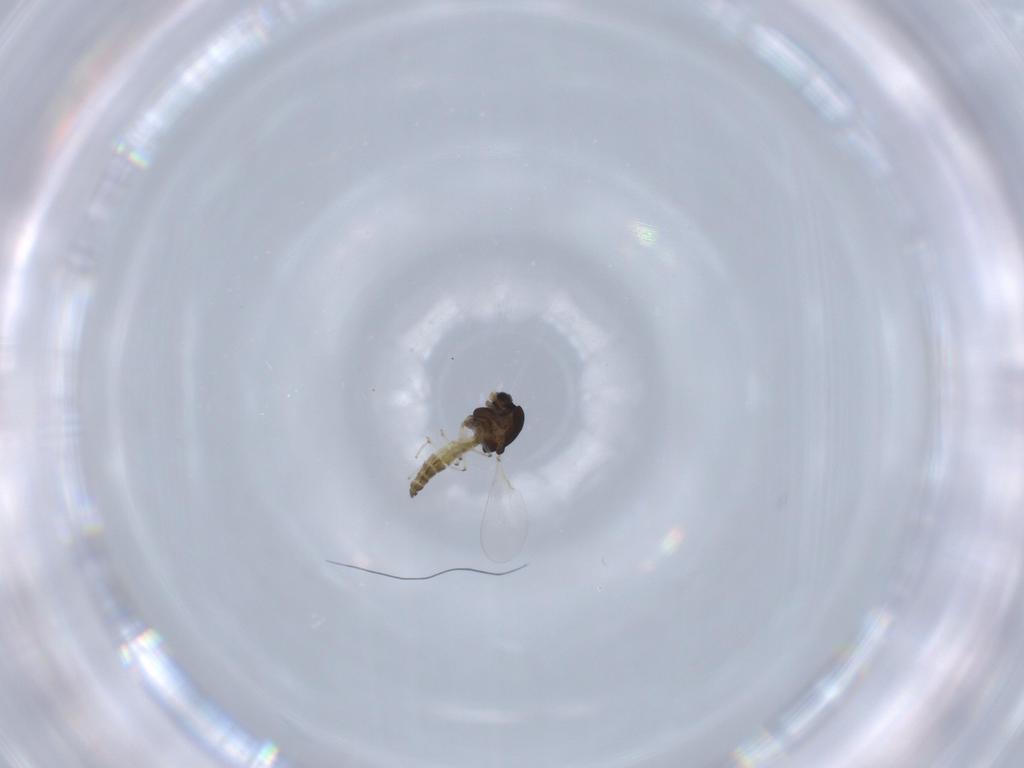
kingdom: Animalia
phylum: Arthropoda
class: Insecta
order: Diptera
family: Chironomidae
